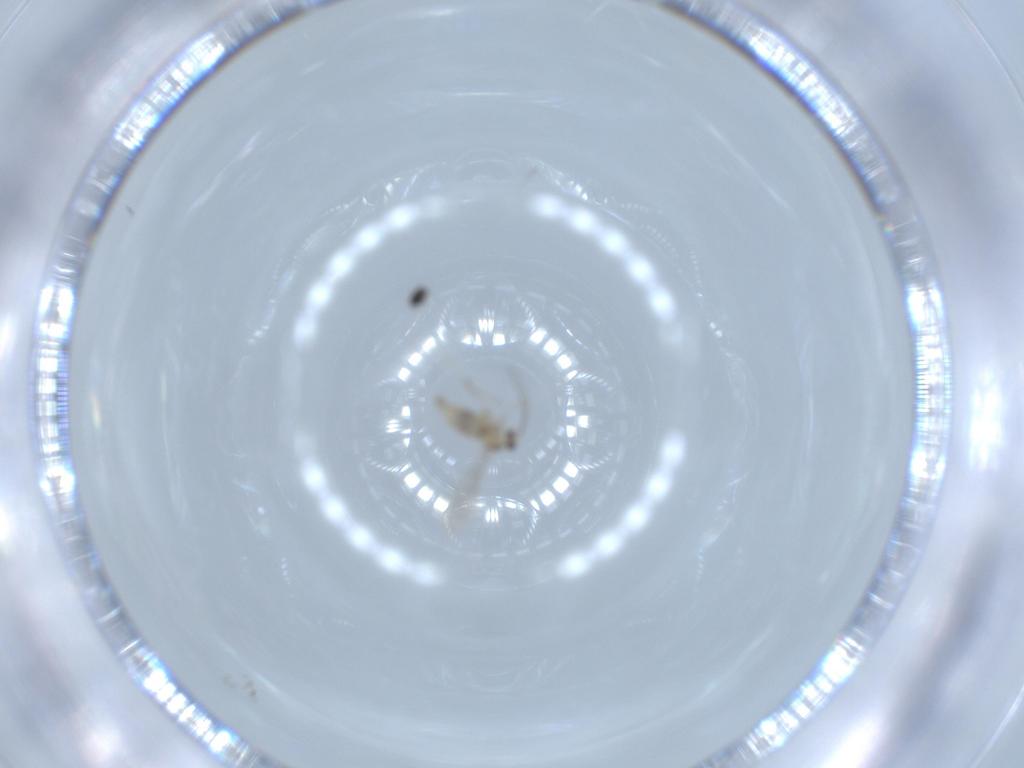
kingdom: Animalia
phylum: Arthropoda
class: Insecta
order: Diptera
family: Cecidomyiidae
